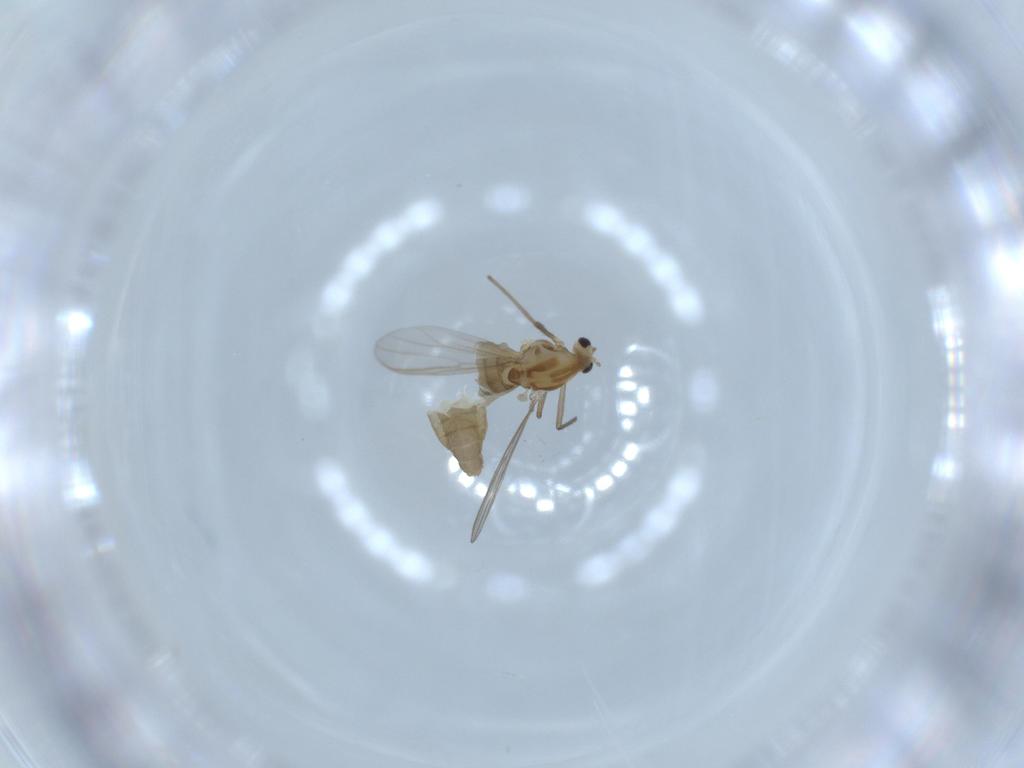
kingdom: Animalia
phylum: Arthropoda
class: Insecta
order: Diptera
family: Chironomidae
